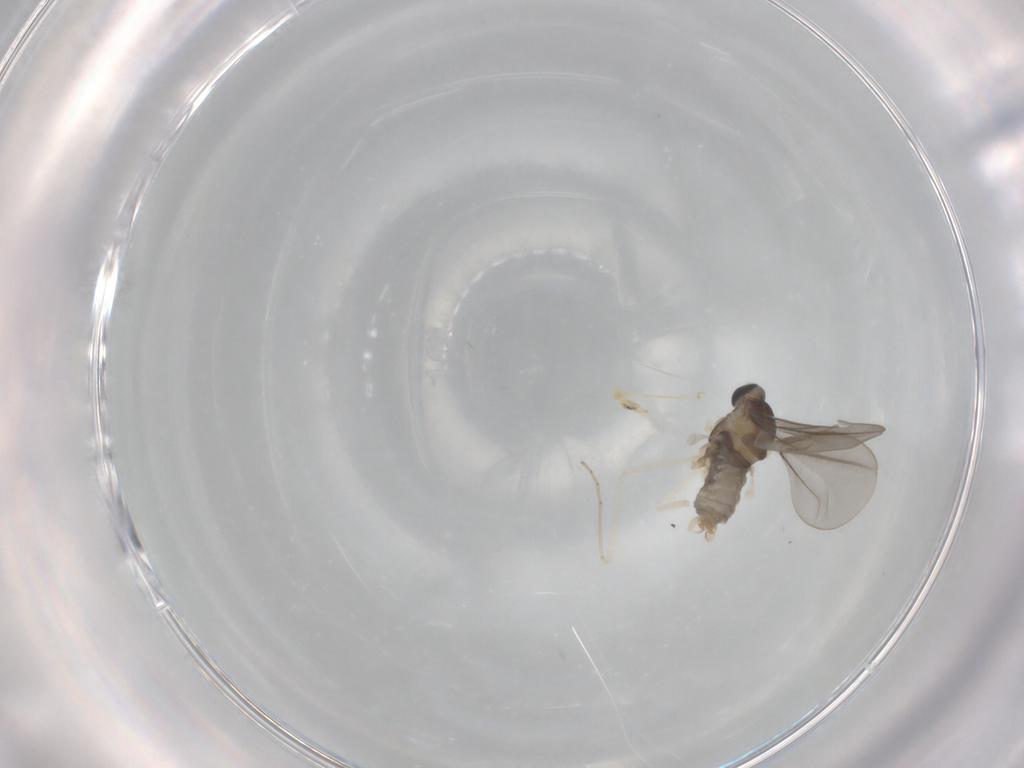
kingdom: Animalia
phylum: Arthropoda
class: Insecta
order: Diptera
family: Cecidomyiidae
